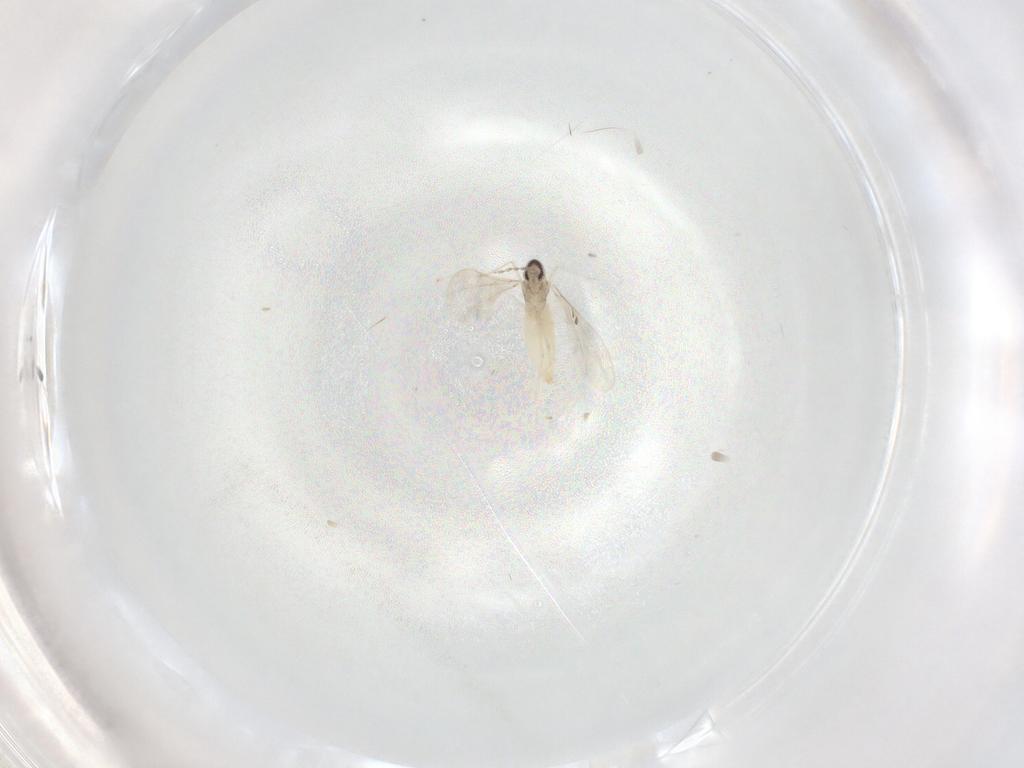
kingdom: Animalia
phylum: Arthropoda
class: Insecta
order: Diptera
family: Cecidomyiidae
